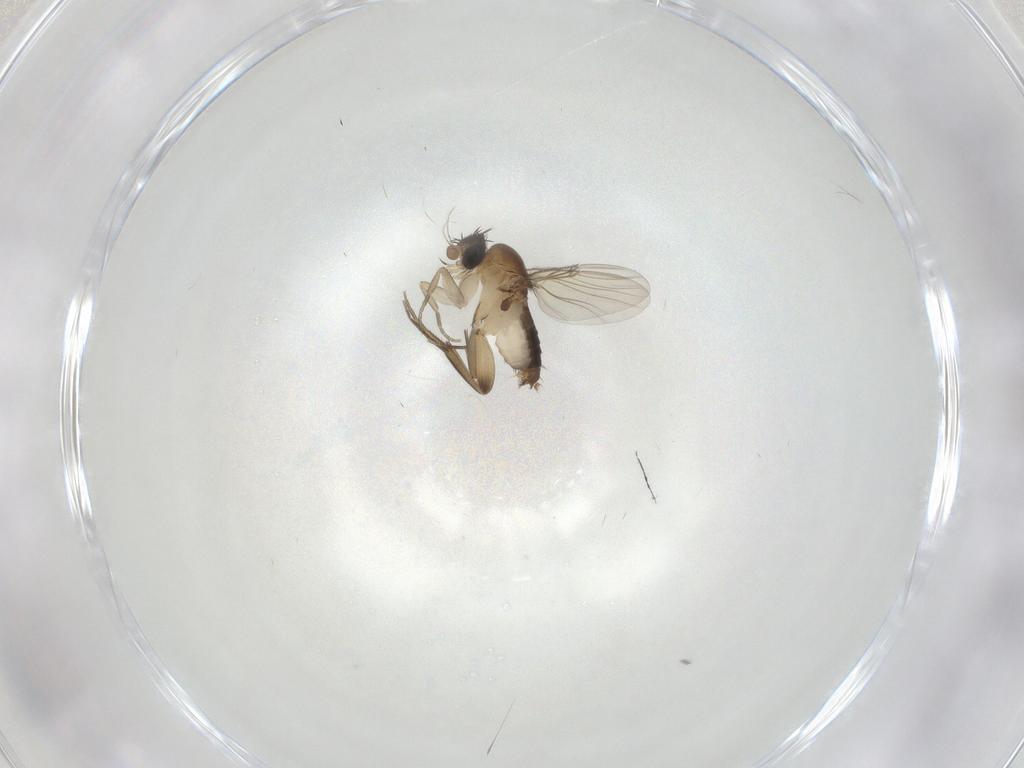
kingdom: Animalia
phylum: Arthropoda
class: Insecta
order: Diptera
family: Phoridae
